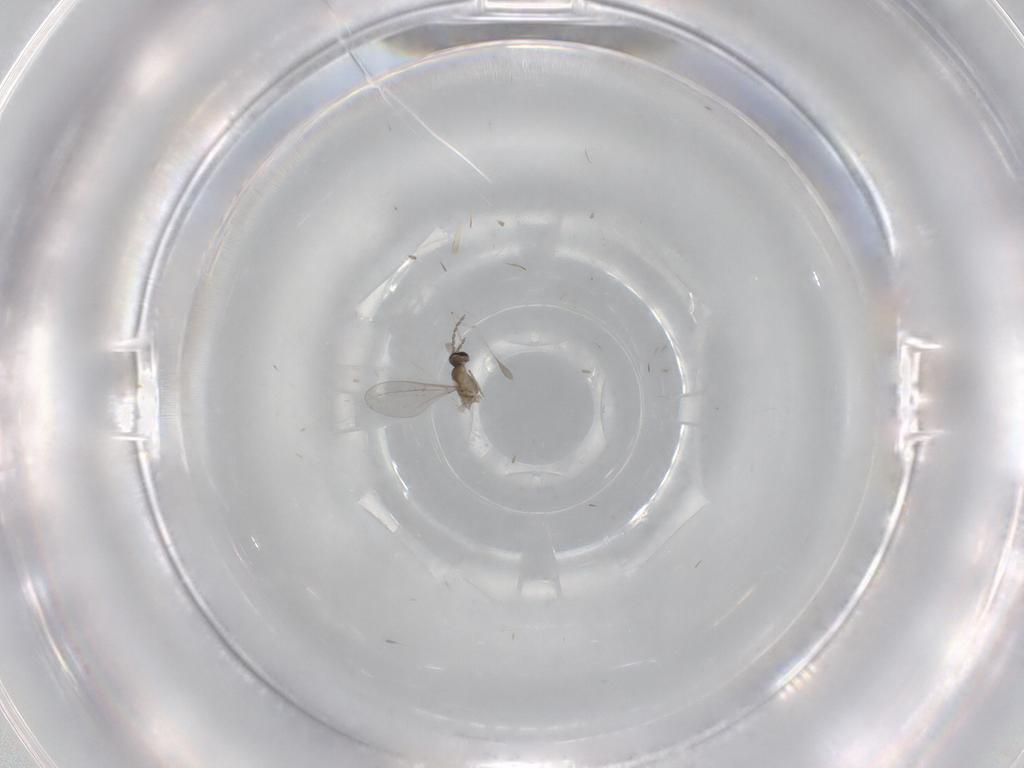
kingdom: Animalia
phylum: Arthropoda
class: Insecta
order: Diptera
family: Cecidomyiidae
